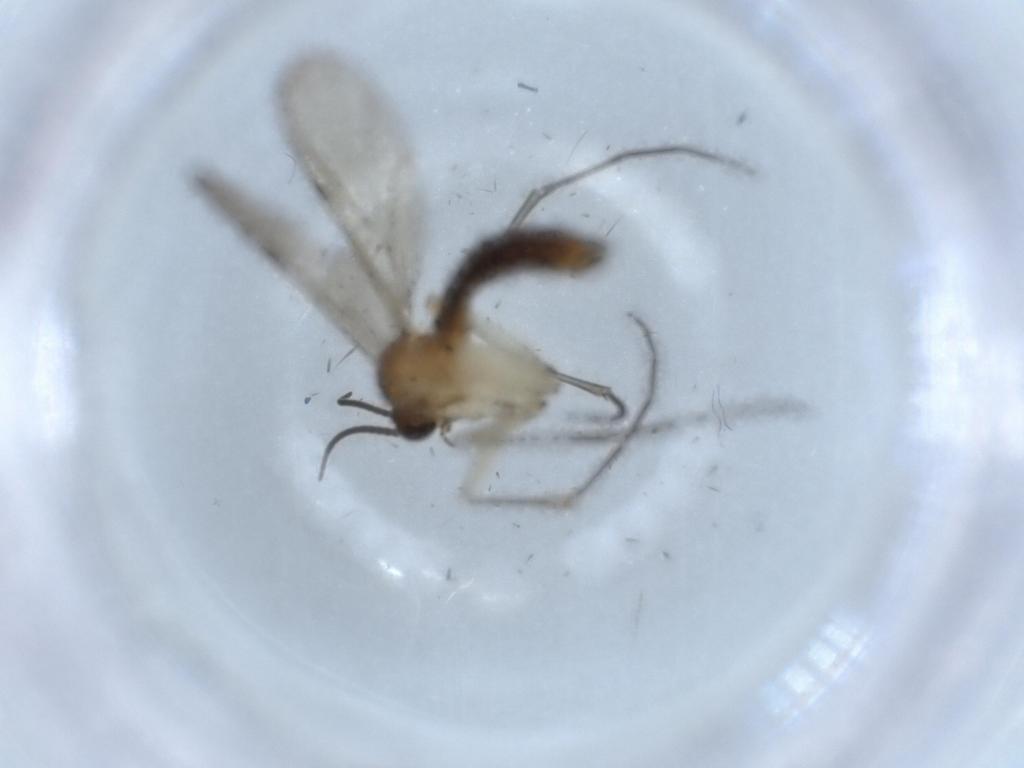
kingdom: Animalia
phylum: Arthropoda
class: Insecta
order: Diptera
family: Keroplatidae
